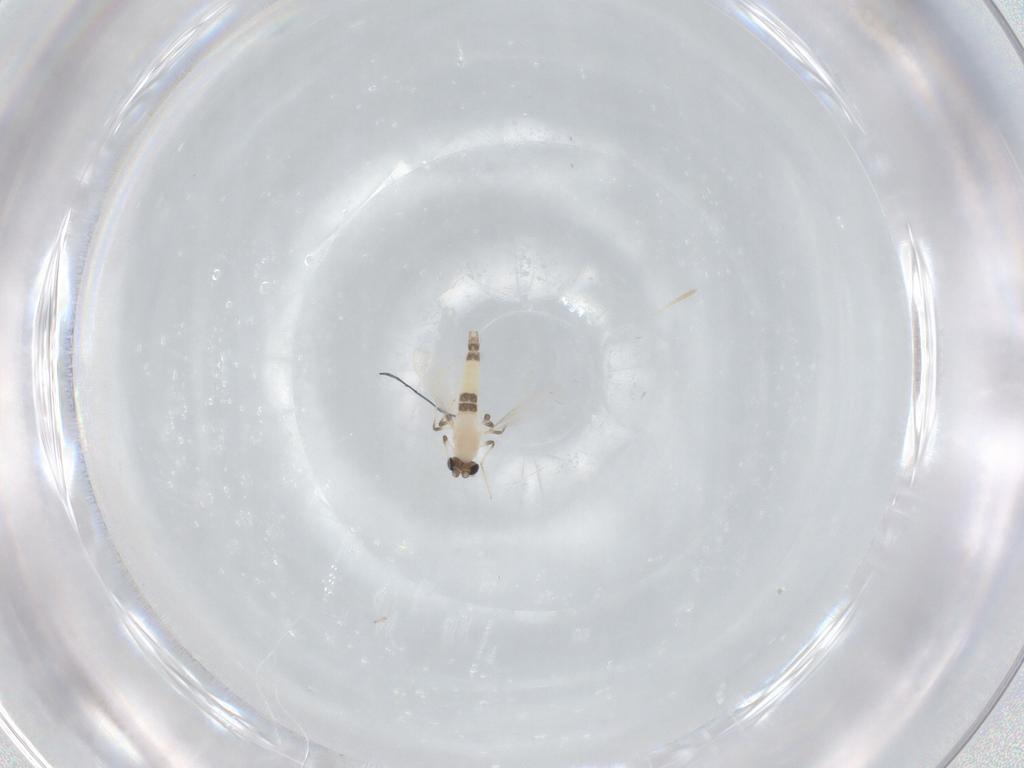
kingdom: Animalia
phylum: Arthropoda
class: Insecta
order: Diptera
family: Chironomidae
